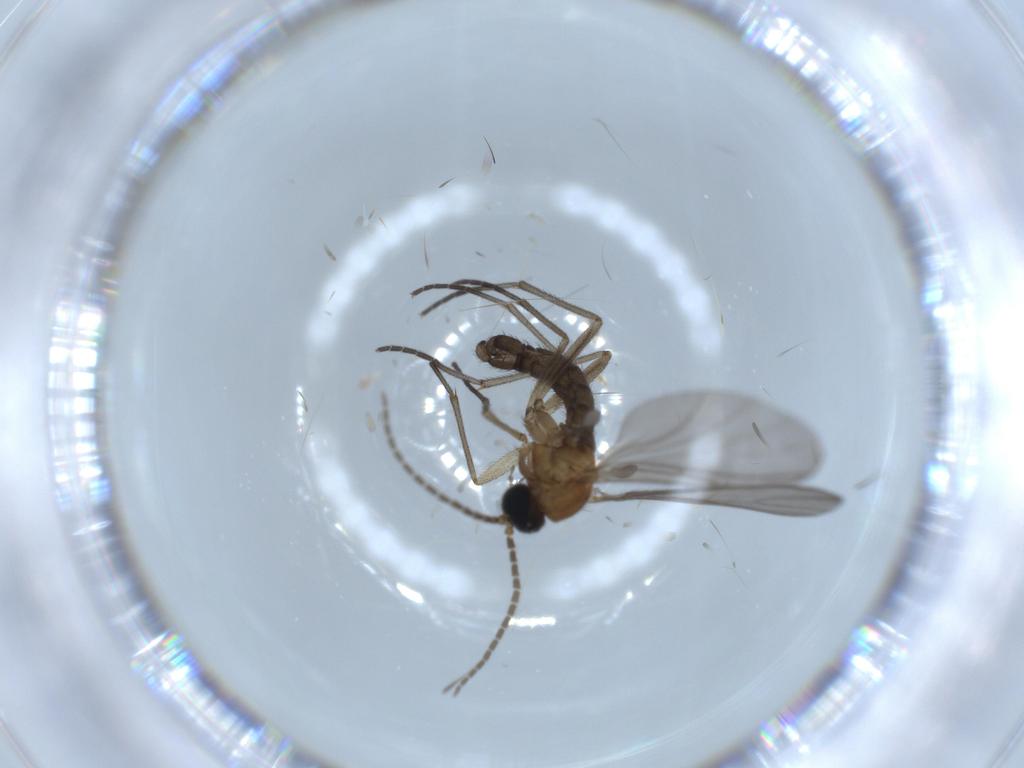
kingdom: Animalia
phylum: Arthropoda
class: Insecta
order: Diptera
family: Sciaridae
